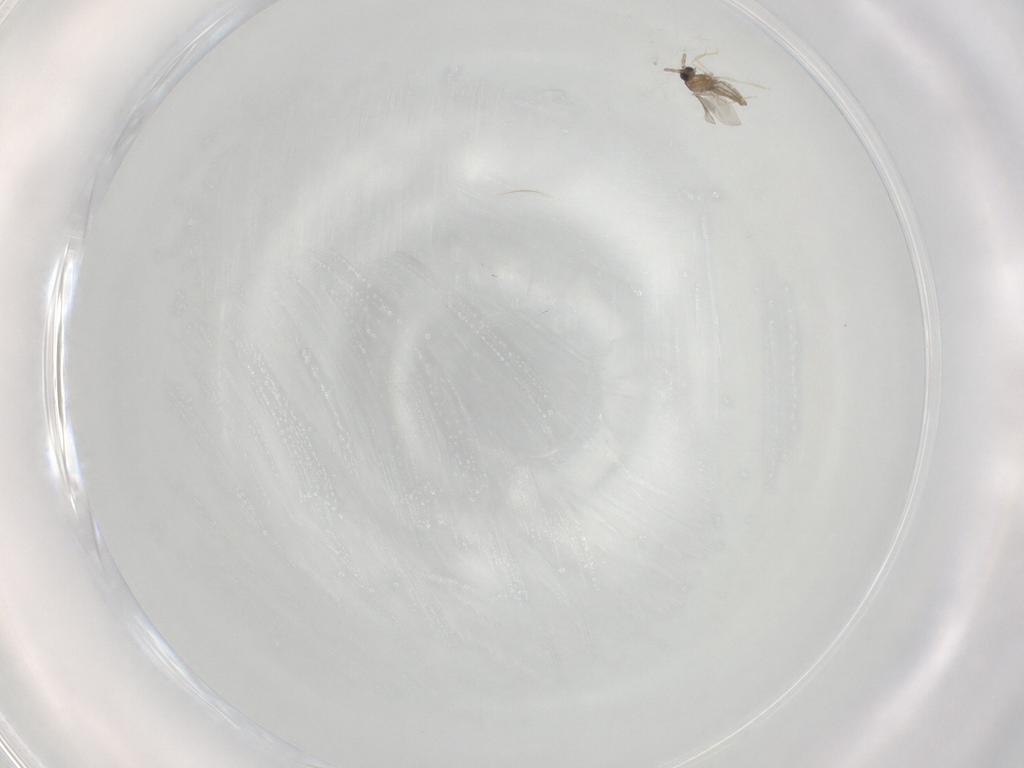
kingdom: Animalia
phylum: Arthropoda
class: Insecta
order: Diptera
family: Cecidomyiidae
